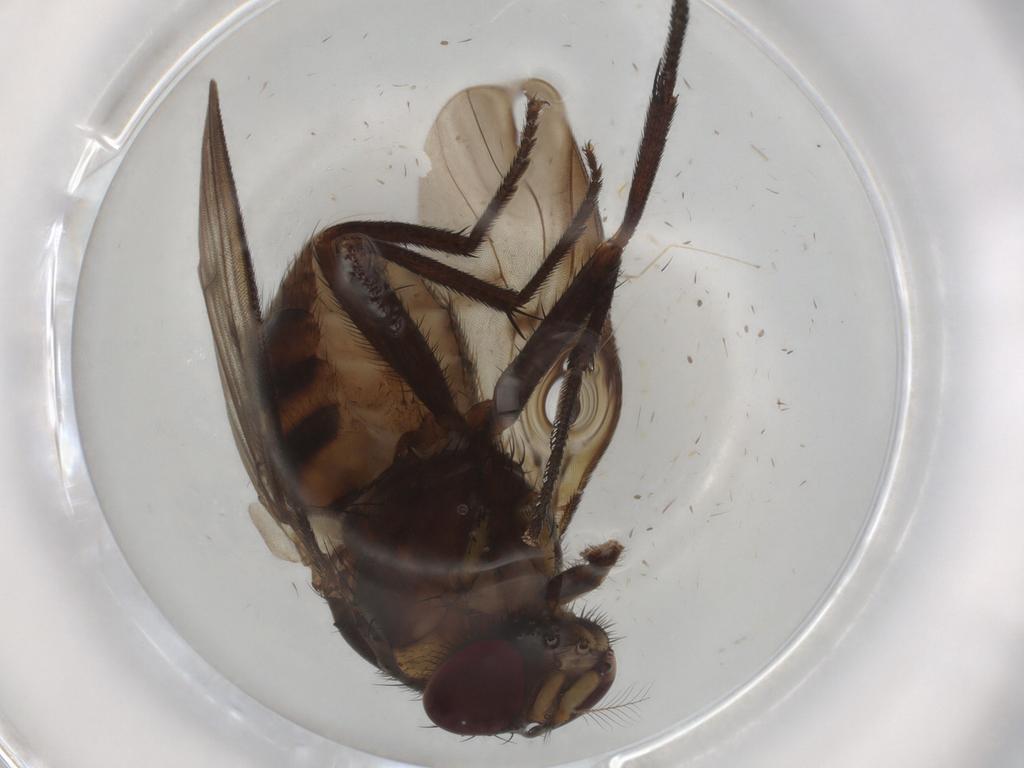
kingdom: Animalia
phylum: Arthropoda
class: Insecta
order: Diptera
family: Muscidae
